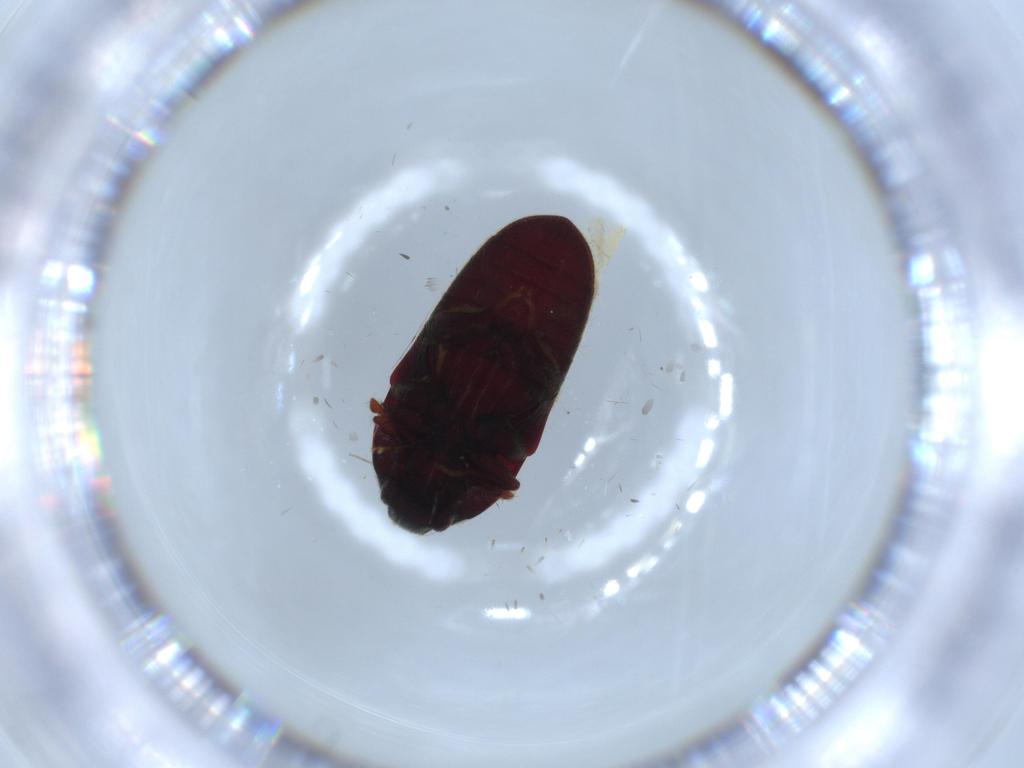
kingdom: Animalia
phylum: Arthropoda
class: Insecta
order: Coleoptera
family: Throscidae
